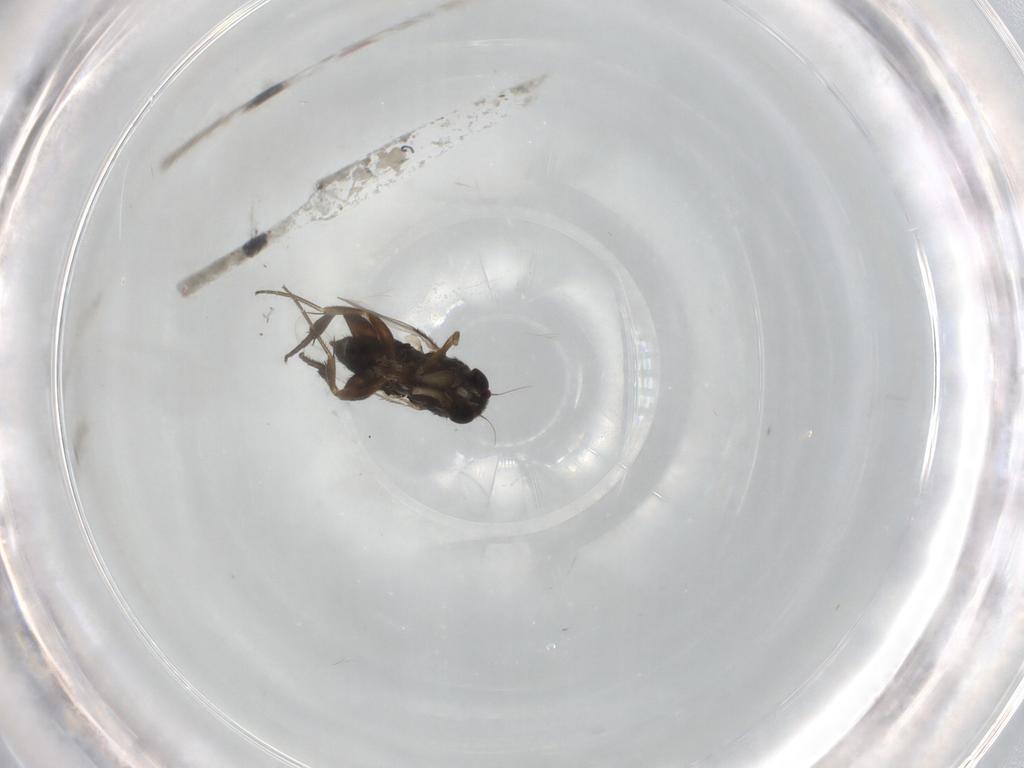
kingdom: Animalia
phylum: Arthropoda
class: Insecta
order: Diptera
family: Phoridae
